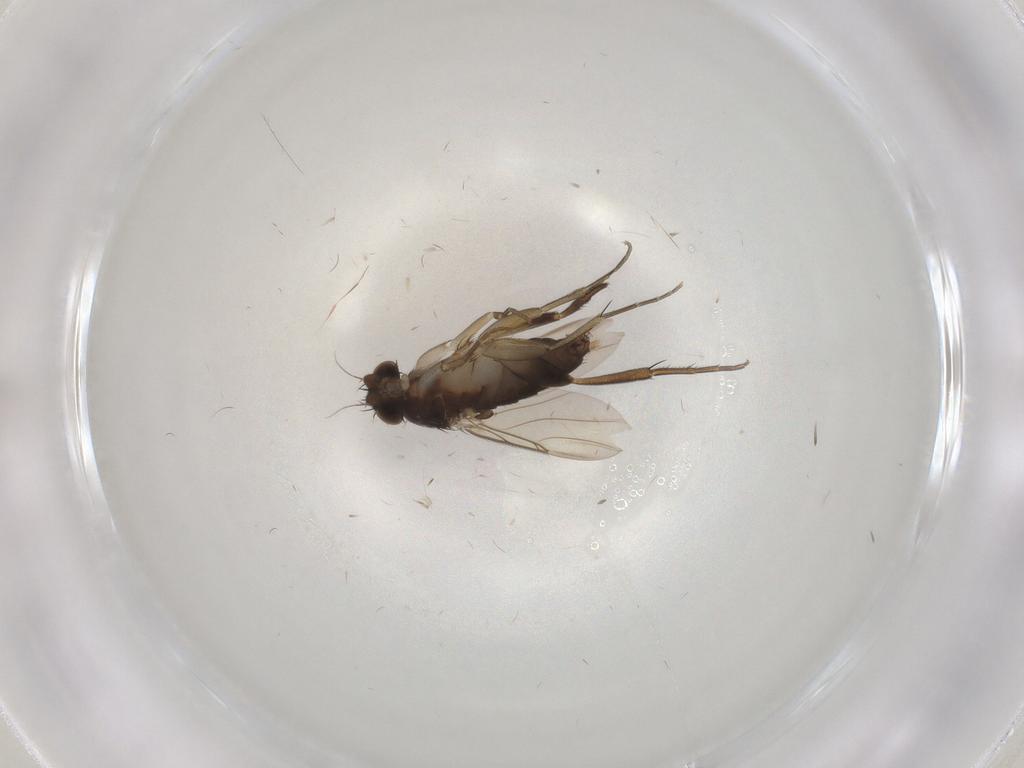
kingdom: Animalia
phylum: Arthropoda
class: Insecta
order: Diptera
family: Phoridae
